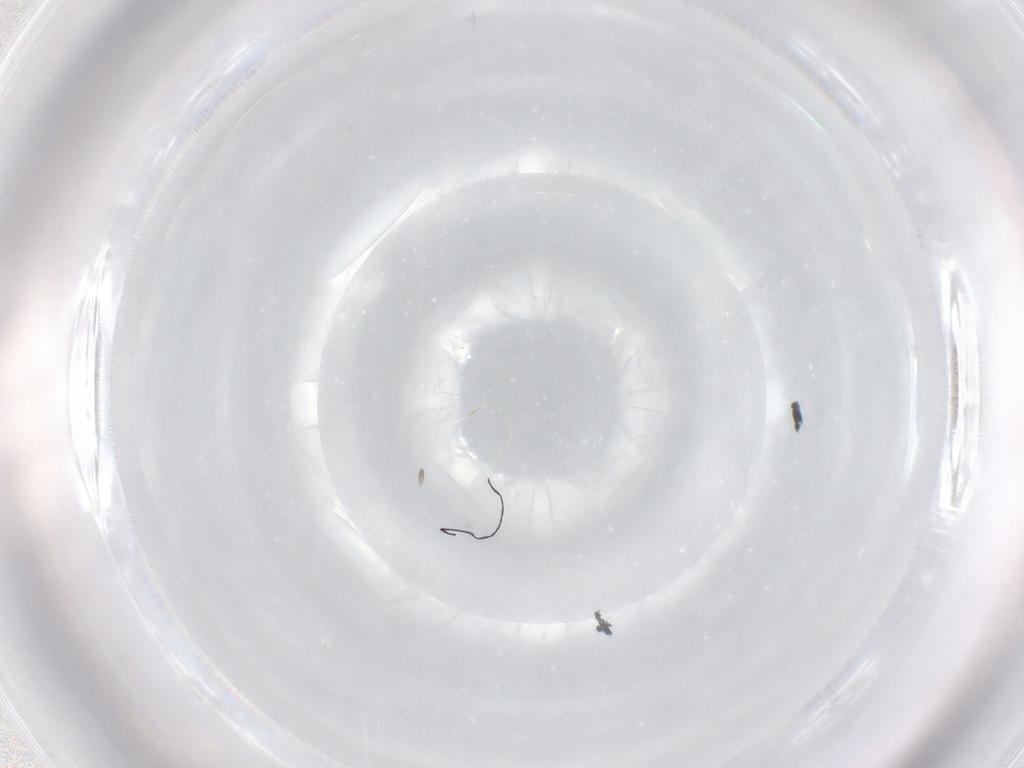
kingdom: Animalia
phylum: Arthropoda
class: Insecta
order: Diptera
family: Cecidomyiidae
